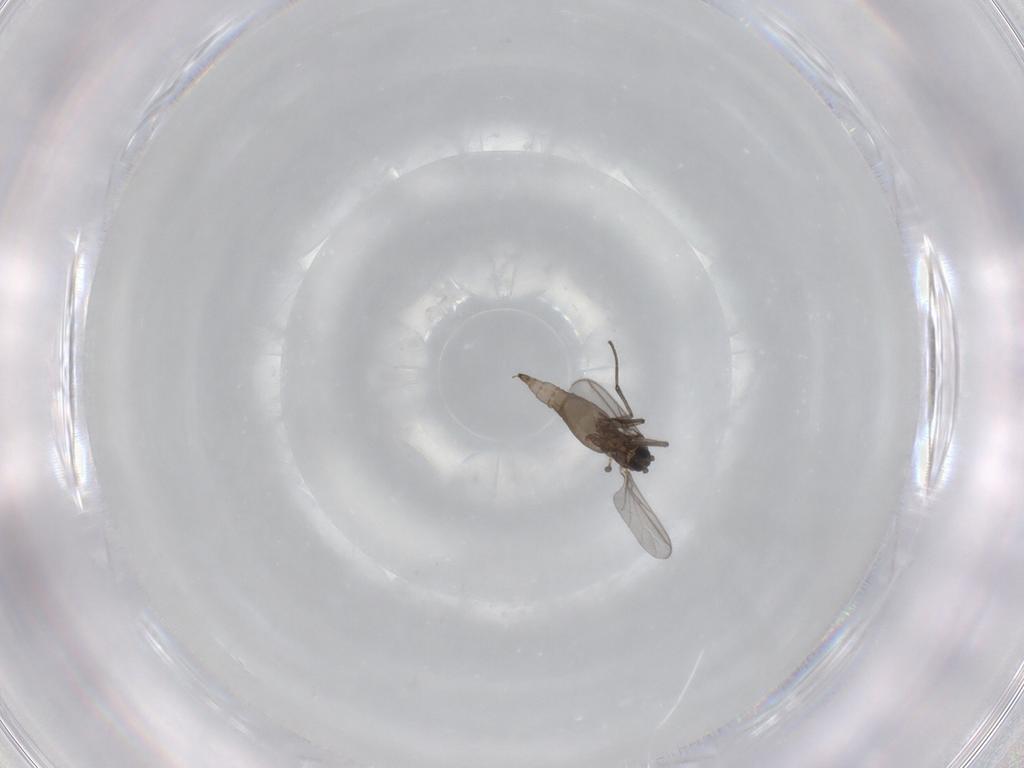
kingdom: Animalia
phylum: Arthropoda
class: Insecta
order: Diptera
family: Sciaridae
